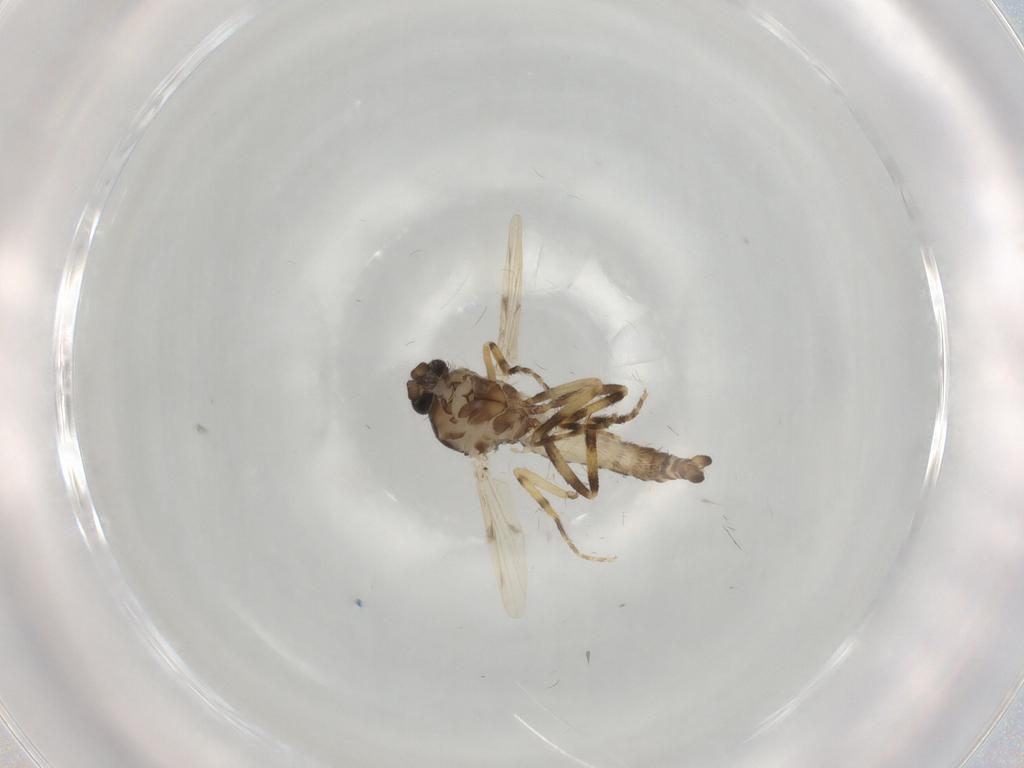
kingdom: Animalia
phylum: Arthropoda
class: Insecta
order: Diptera
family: Ceratopogonidae
